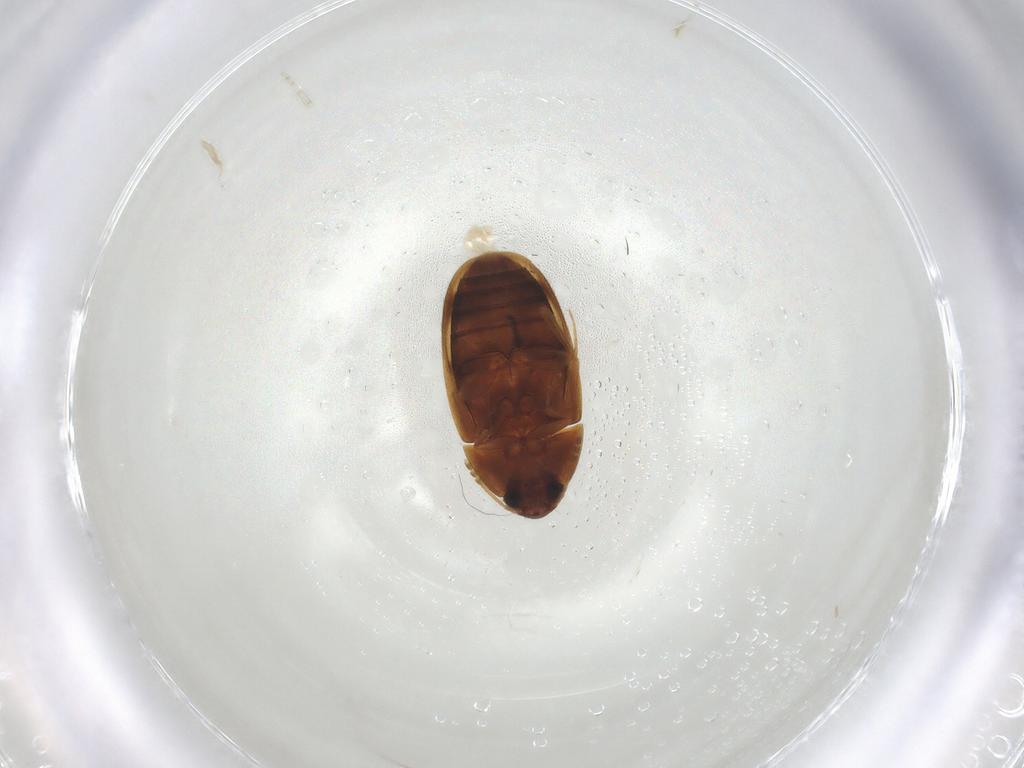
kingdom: Animalia
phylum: Arthropoda
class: Insecta
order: Coleoptera
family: Mycetophagidae
